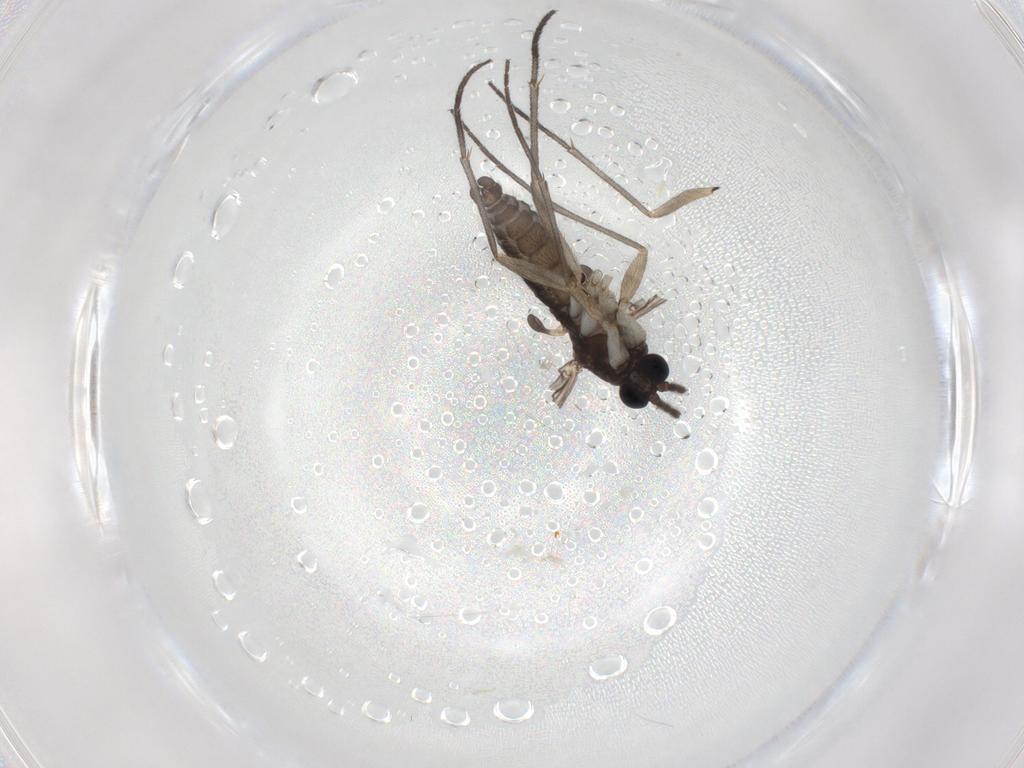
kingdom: Animalia
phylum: Arthropoda
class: Insecta
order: Diptera
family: Sciaridae
